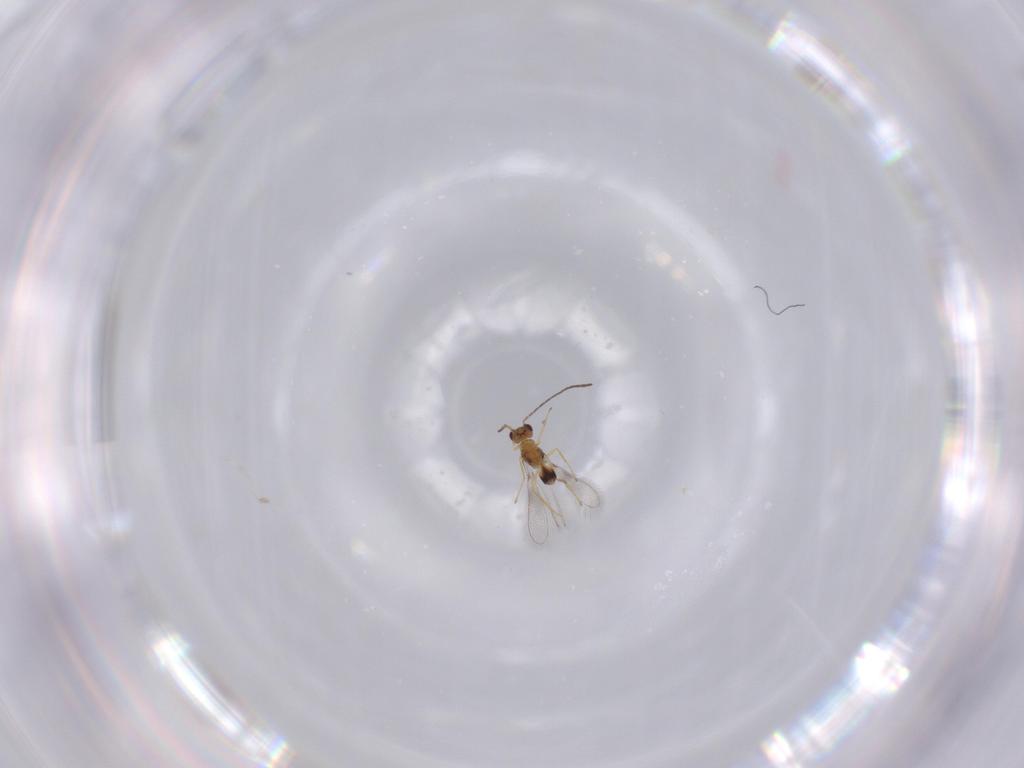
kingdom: Animalia
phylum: Arthropoda
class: Insecta
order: Hymenoptera
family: Mymaridae
